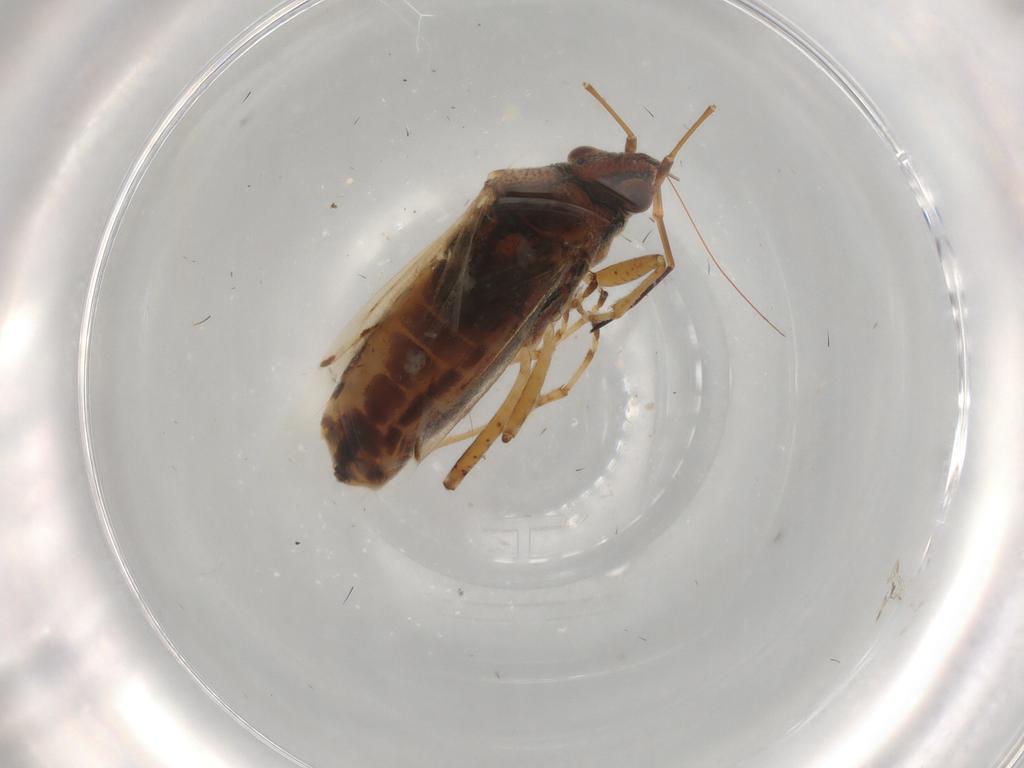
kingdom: Animalia
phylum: Arthropoda
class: Insecta
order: Hemiptera
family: Lygaeidae
